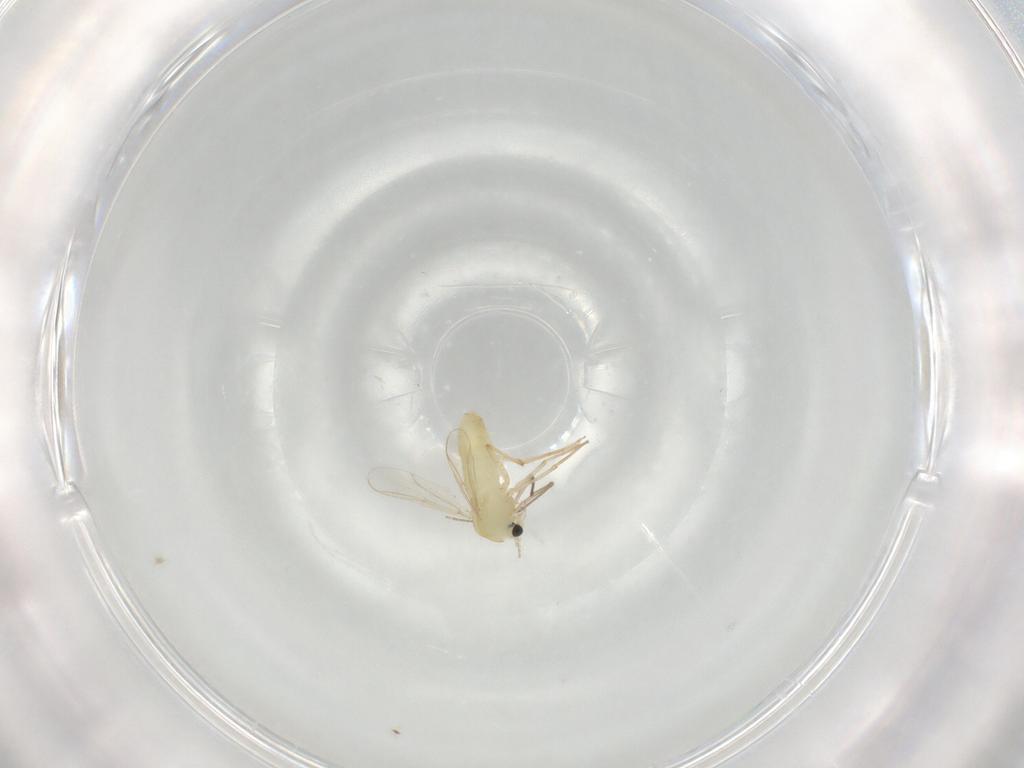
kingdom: Animalia
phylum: Arthropoda
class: Insecta
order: Diptera
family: Chironomidae
